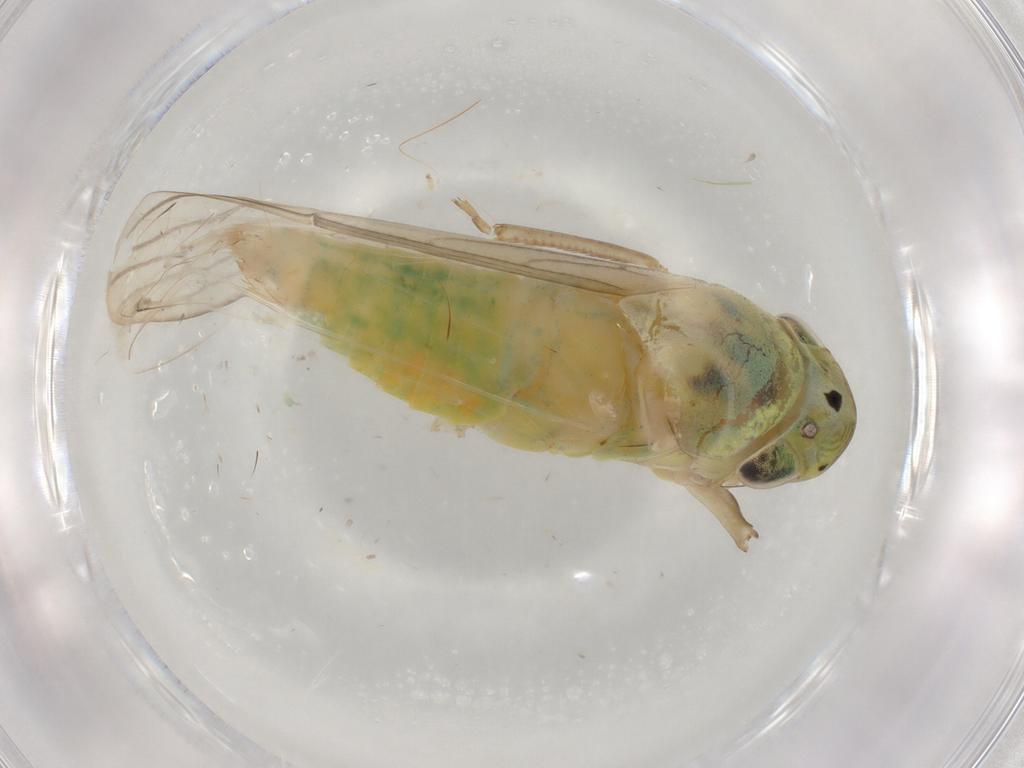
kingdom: Animalia
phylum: Arthropoda
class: Insecta
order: Hemiptera
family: Cicadellidae
